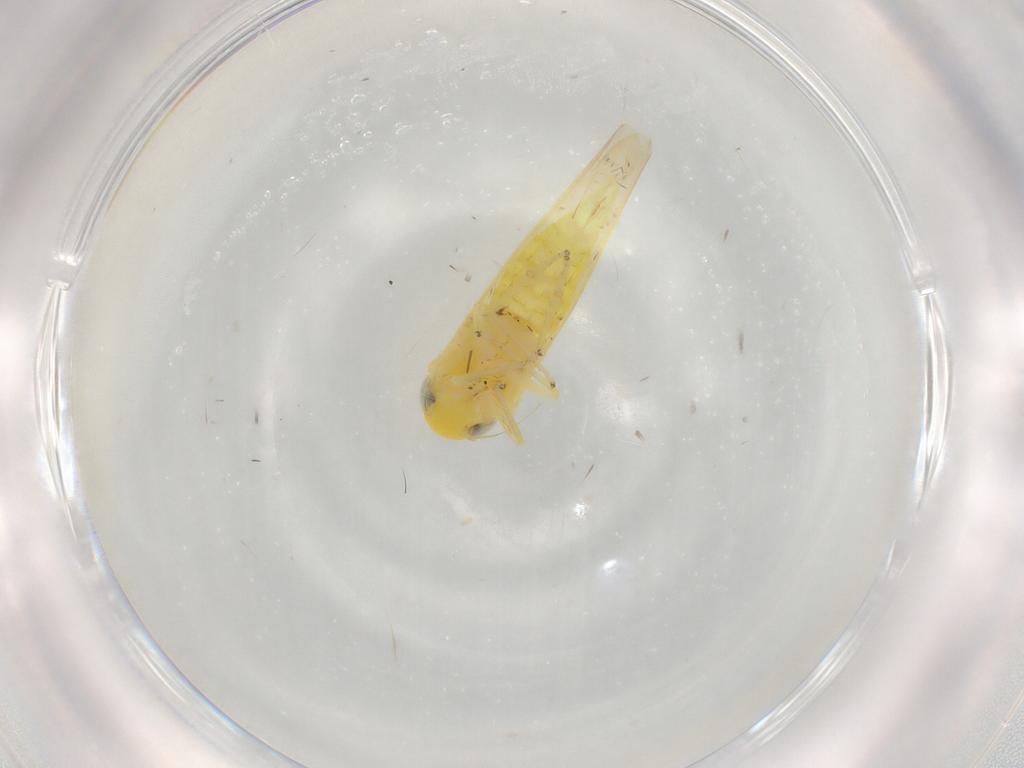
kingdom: Animalia
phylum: Arthropoda
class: Insecta
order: Hemiptera
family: Cicadellidae
